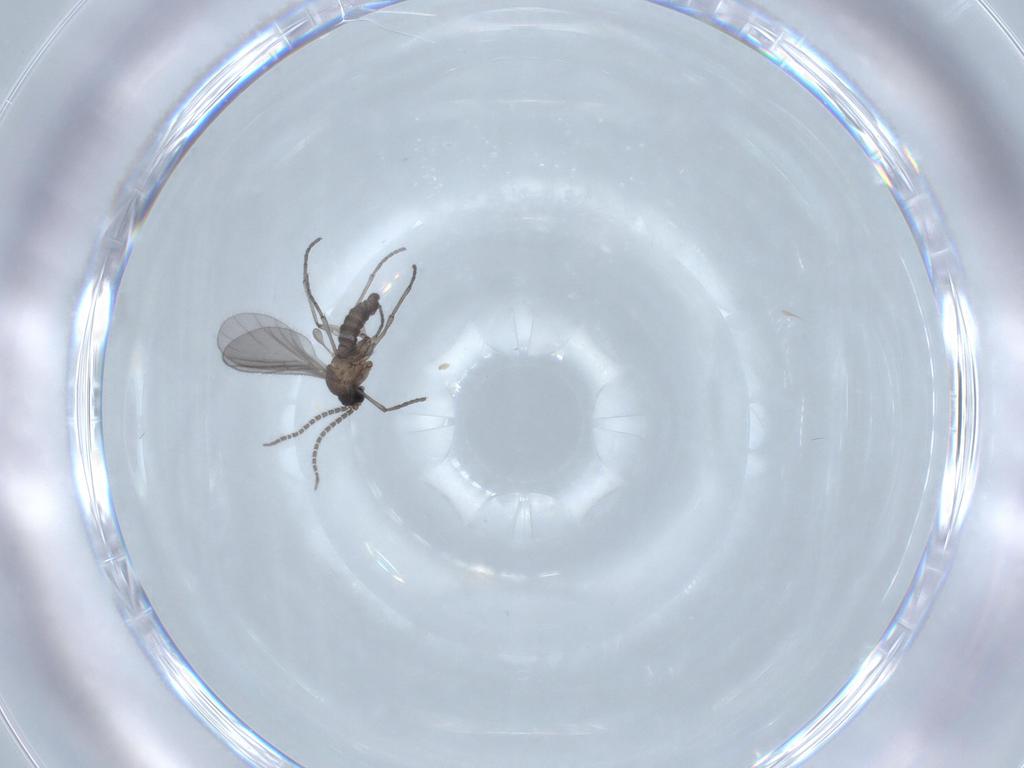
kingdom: Animalia
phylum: Arthropoda
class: Insecta
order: Diptera
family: Sciaridae
